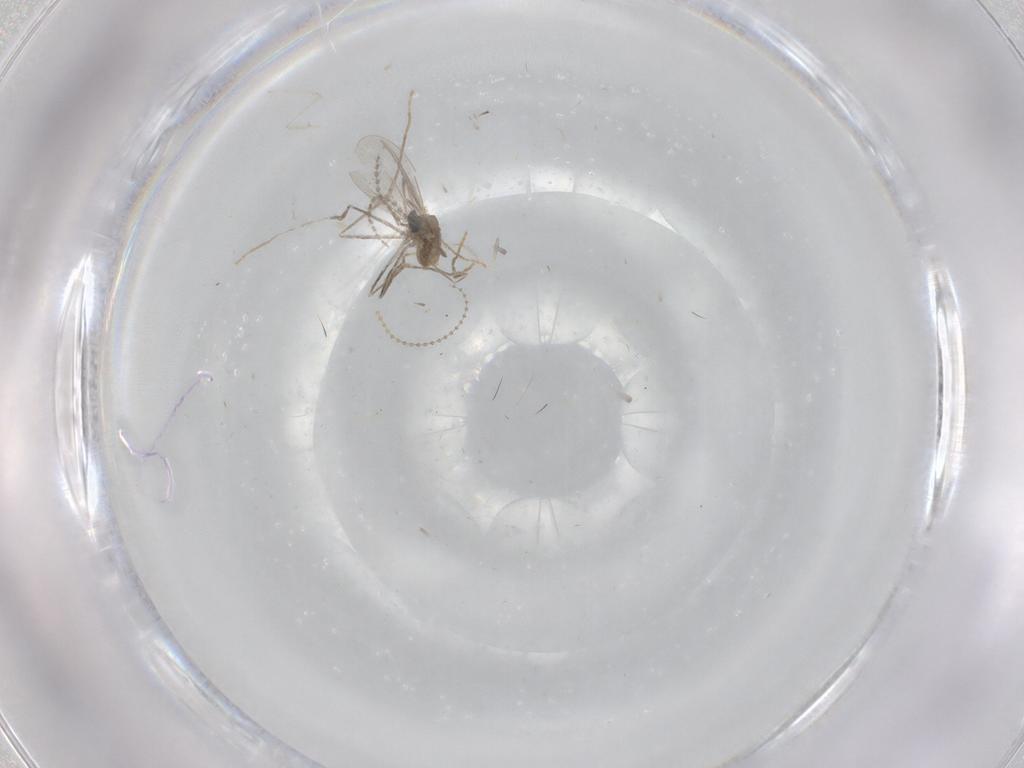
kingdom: Animalia
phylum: Arthropoda
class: Insecta
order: Diptera
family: Cecidomyiidae
